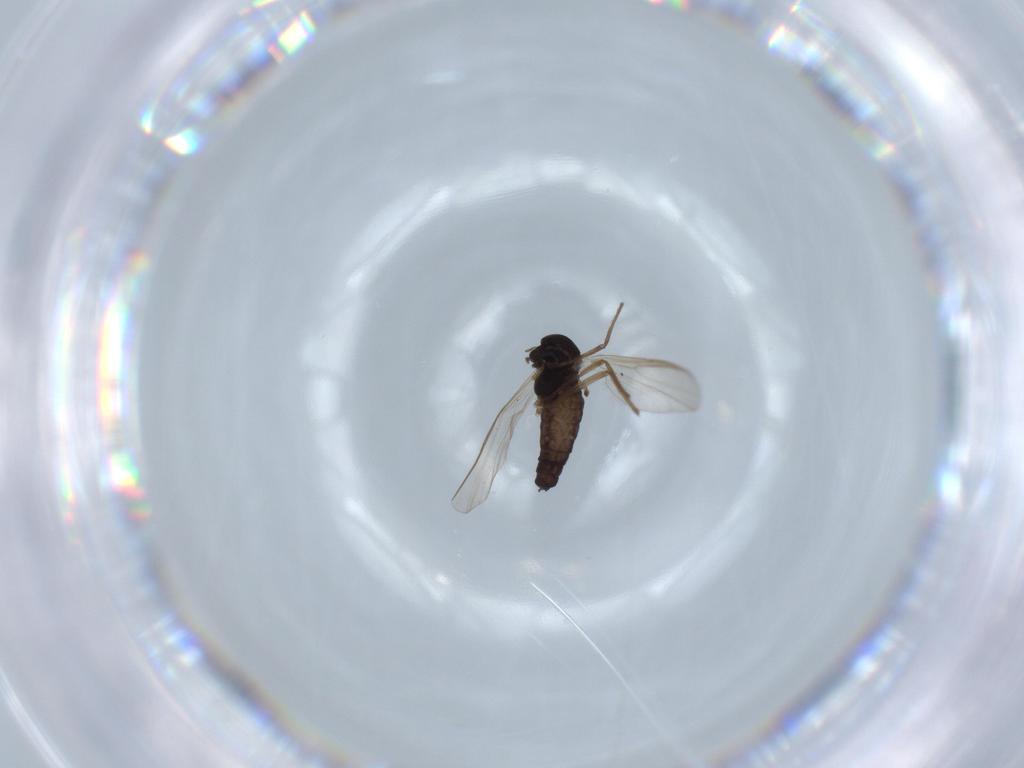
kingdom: Animalia
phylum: Arthropoda
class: Insecta
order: Diptera
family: Chironomidae
